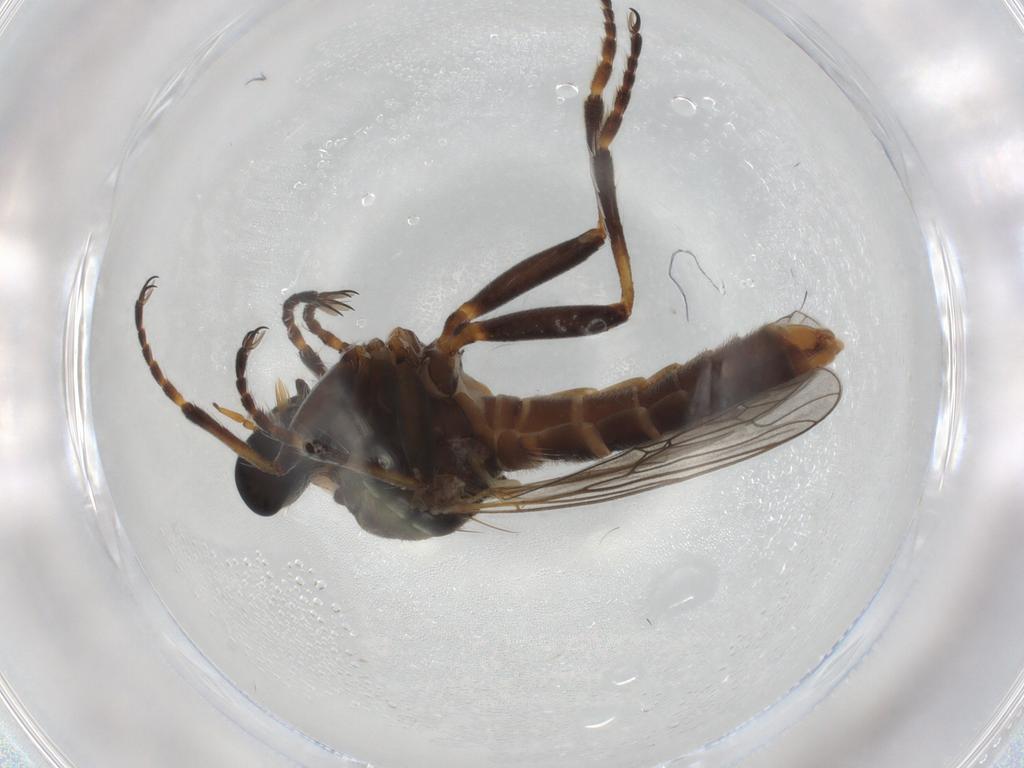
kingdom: Animalia
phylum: Arthropoda
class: Insecta
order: Diptera
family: Asilidae
